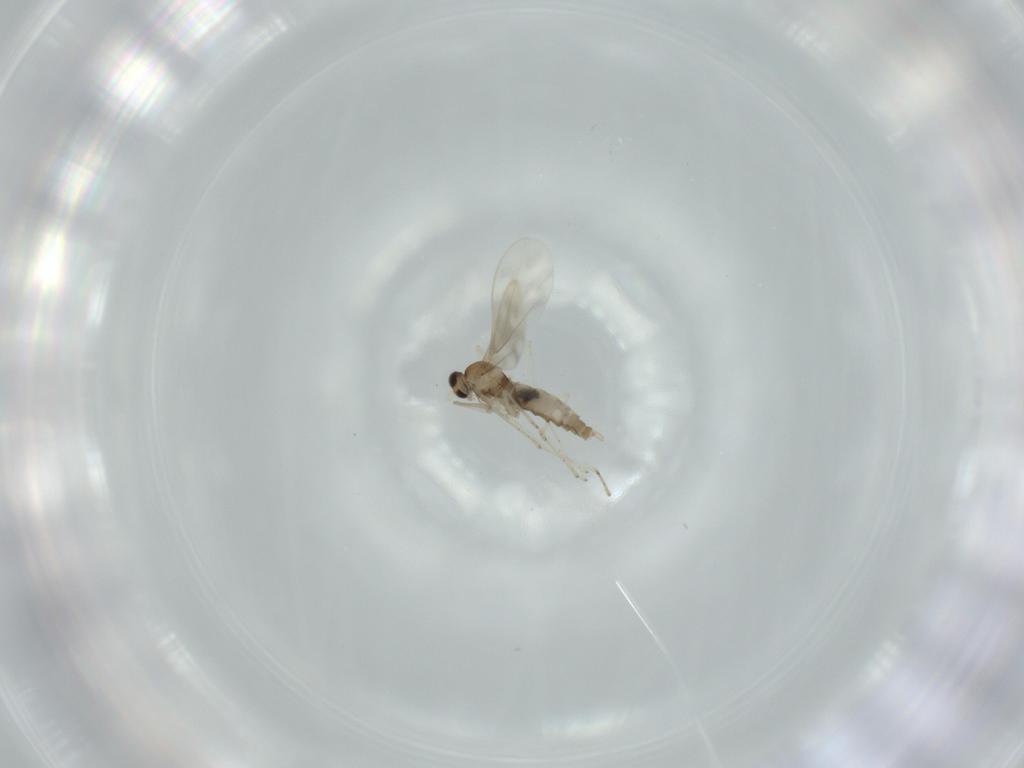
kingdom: Animalia
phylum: Arthropoda
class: Insecta
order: Diptera
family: Cecidomyiidae
